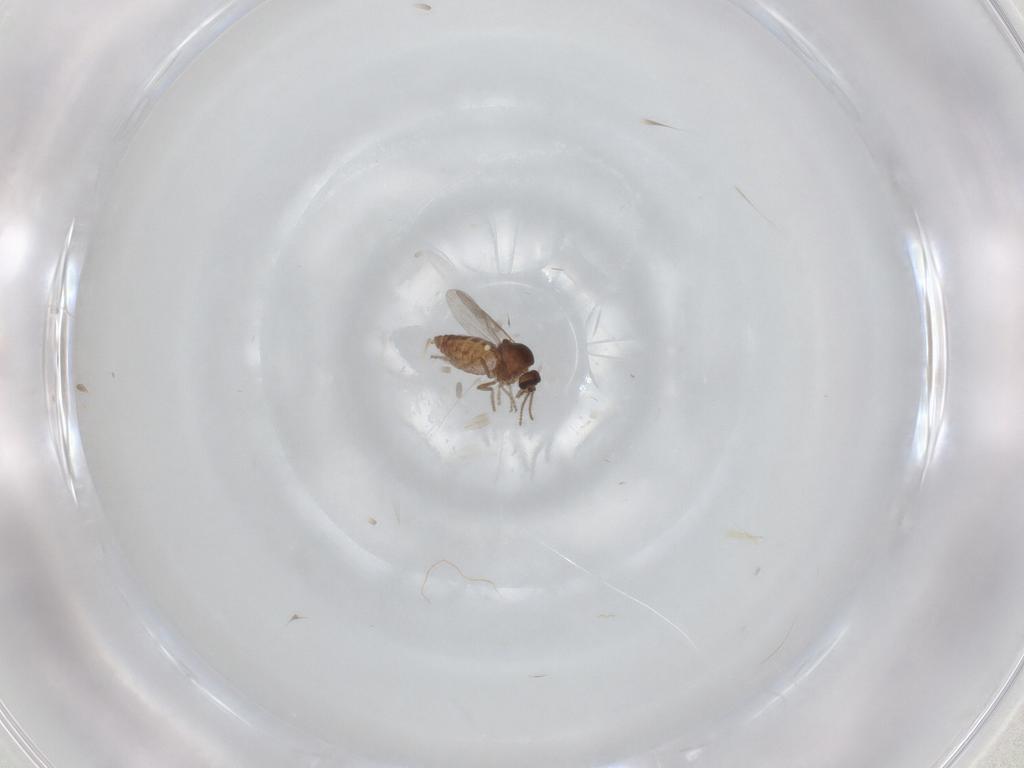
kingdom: Animalia
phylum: Arthropoda
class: Insecta
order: Diptera
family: Ceratopogonidae
